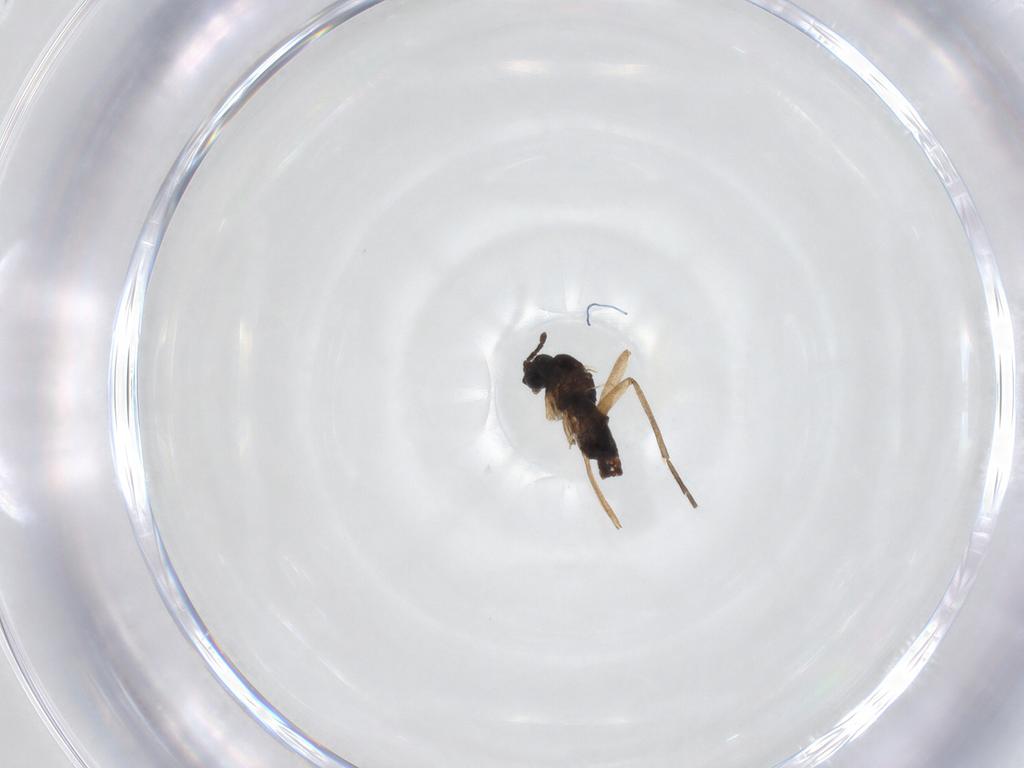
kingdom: Animalia
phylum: Arthropoda
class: Insecta
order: Diptera
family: Sciaridae
